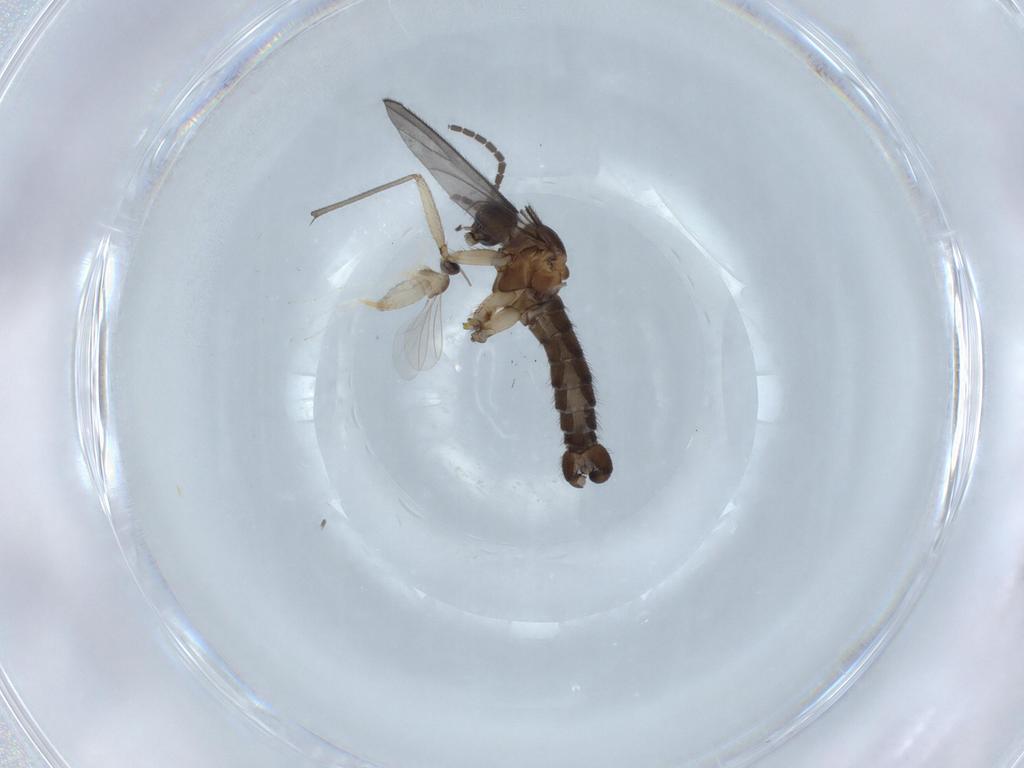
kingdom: Animalia
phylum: Arthropoda
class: Insecta
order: Diptera
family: Sciaridae
